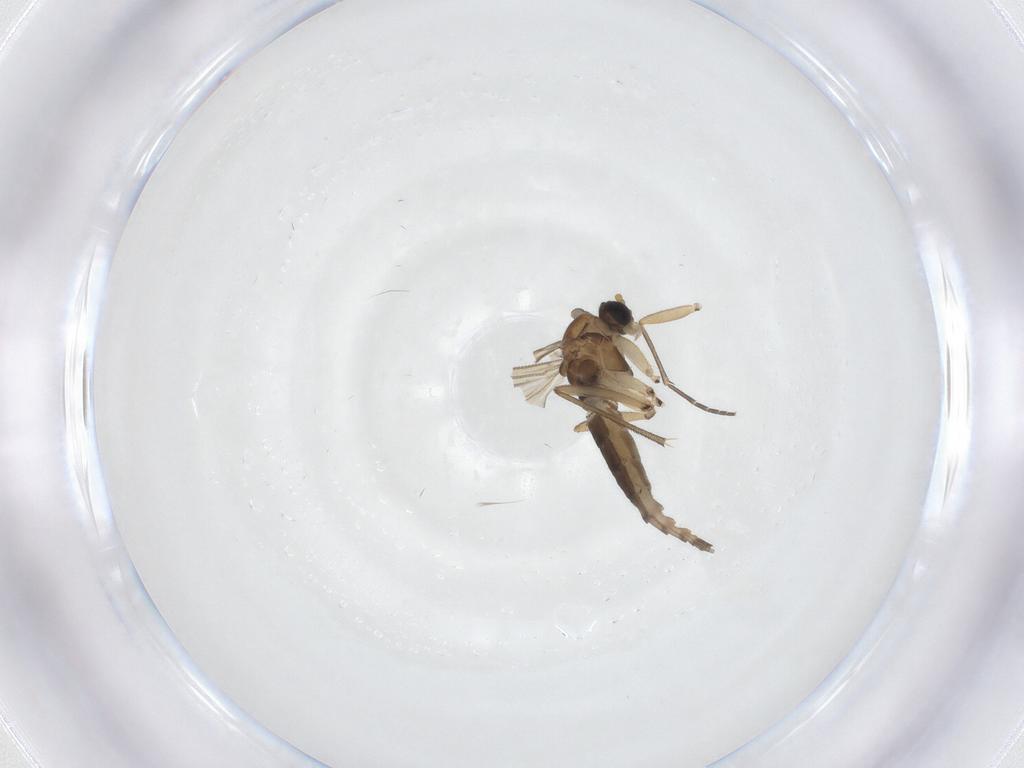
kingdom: Animalia
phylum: Arthropoda
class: Insecta
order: Diptera
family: Sciaridae
